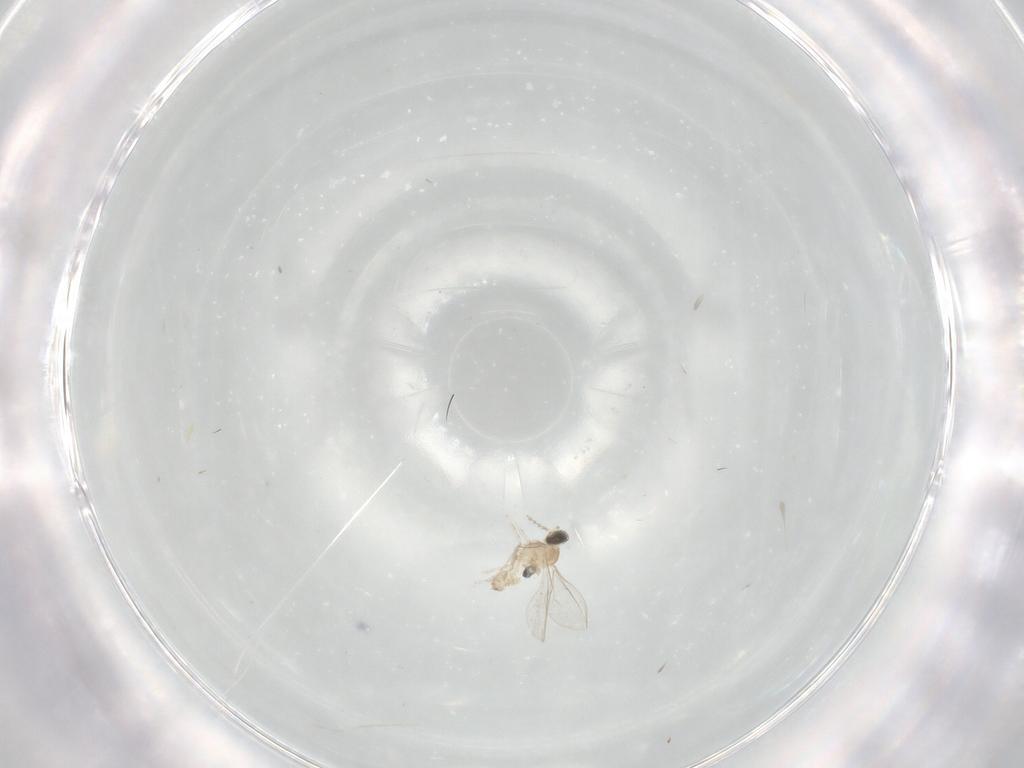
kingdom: Animalia
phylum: Arthropoda
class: Insecta
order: Diptera
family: Cecidomyiidae
